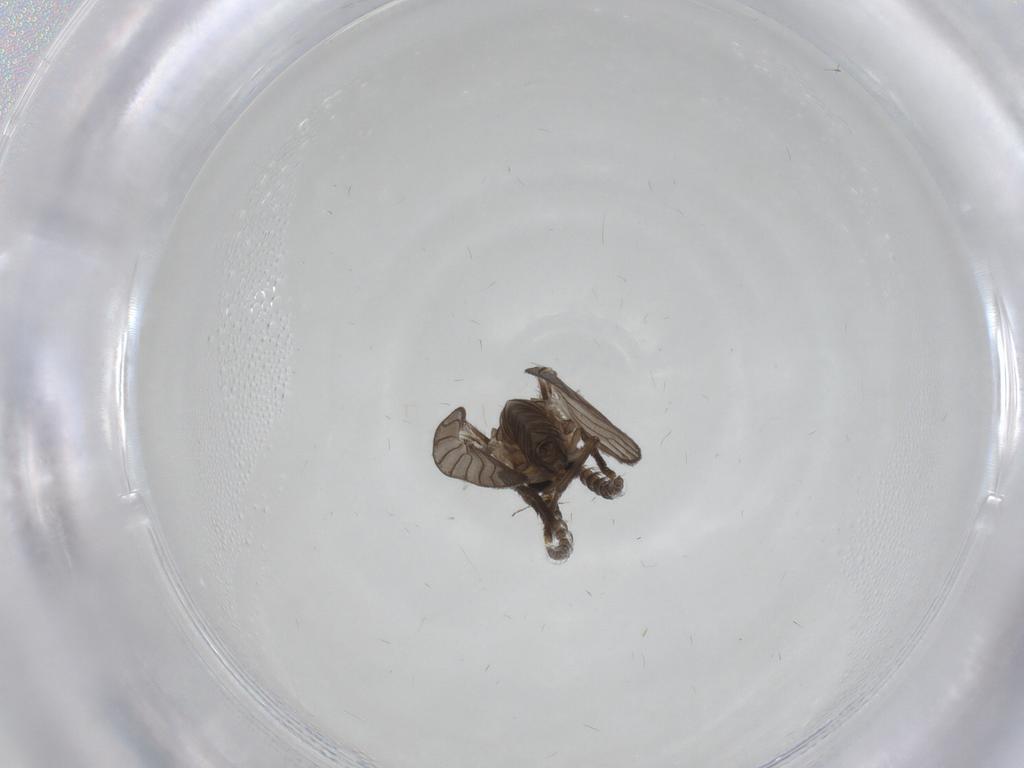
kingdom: Animalia
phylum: Arthropoda
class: Insecta
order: Diptera
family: Psychodidae
